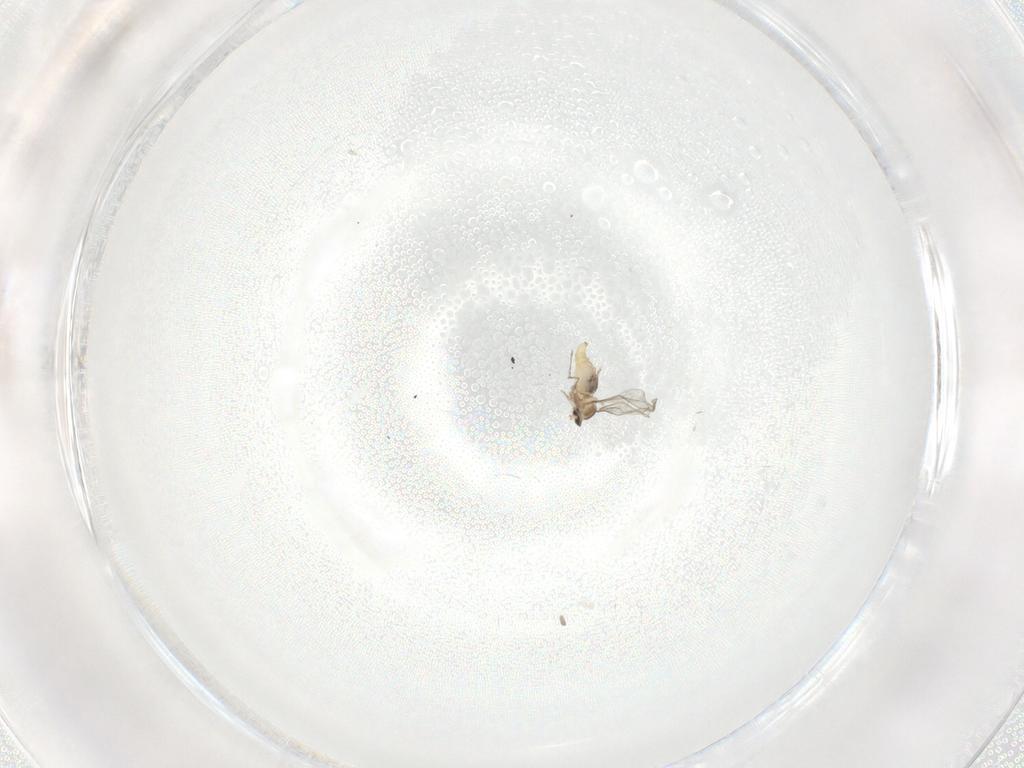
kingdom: Animalia
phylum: Arthropoda
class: Insecta
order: Diptera
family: Cecidomyiidae
